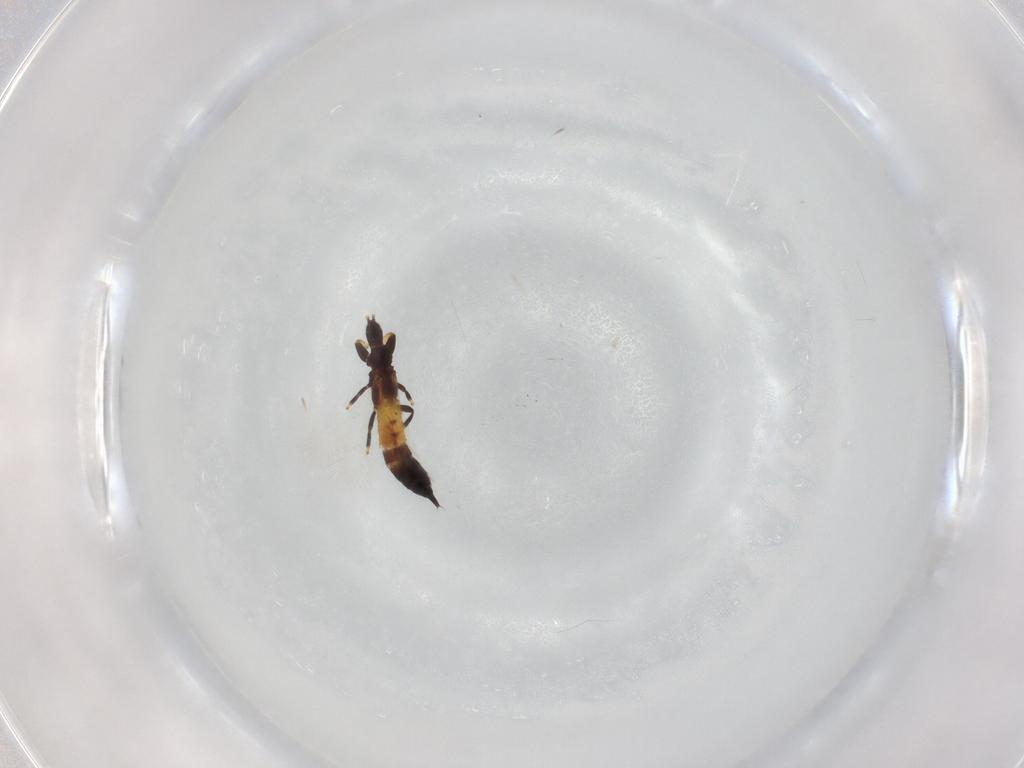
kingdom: Animalia
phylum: Arthropoda
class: Insecta
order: Thysanoptera
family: Phlaeothripidae
